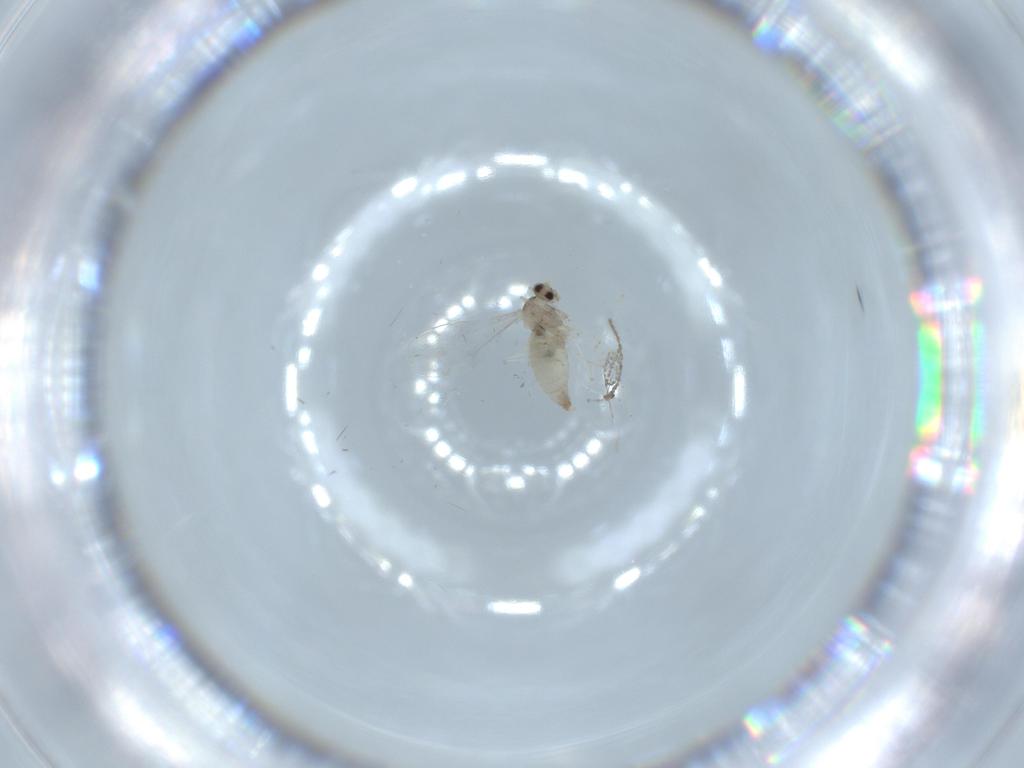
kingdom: Animalia
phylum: Arthropoda
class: Insecta
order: Diptera
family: Cecidomyiidae
